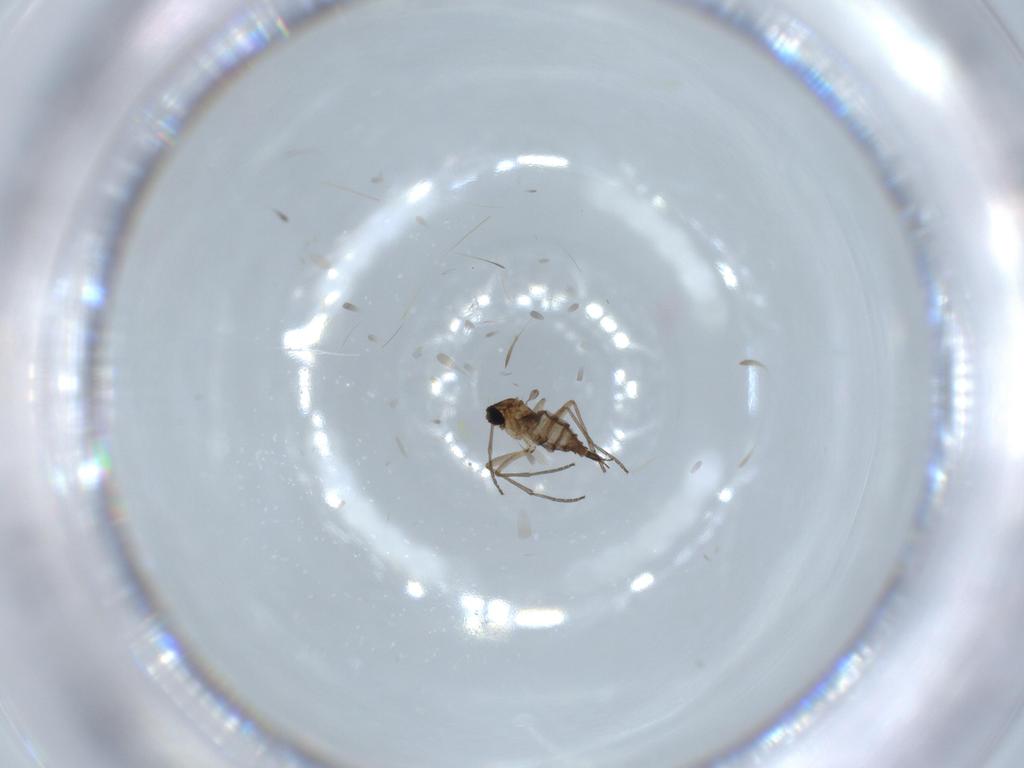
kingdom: Animalia
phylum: Arthropoda
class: Insecta
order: Diptera
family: Sciaridae
